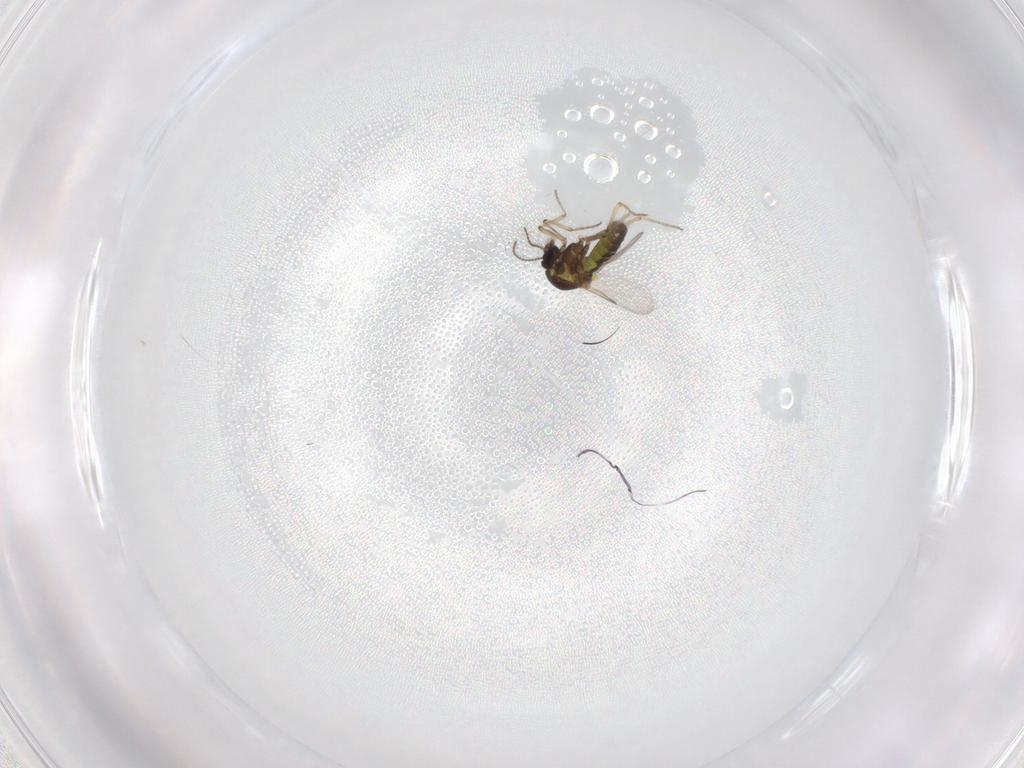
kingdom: Animalia
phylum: Arthropoda
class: Insecta
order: Diptera
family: Ceratopogonidae
